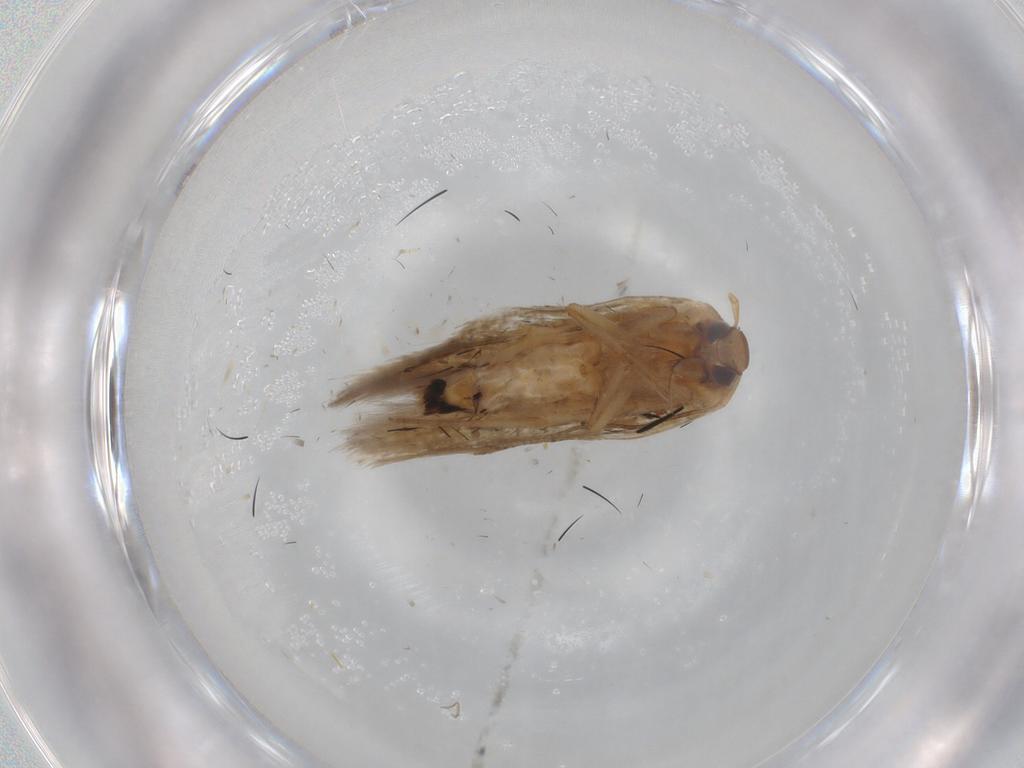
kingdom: Animalia
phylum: Arthropoda
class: Insecta
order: Lepidoptera
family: Cosmopterigidae
